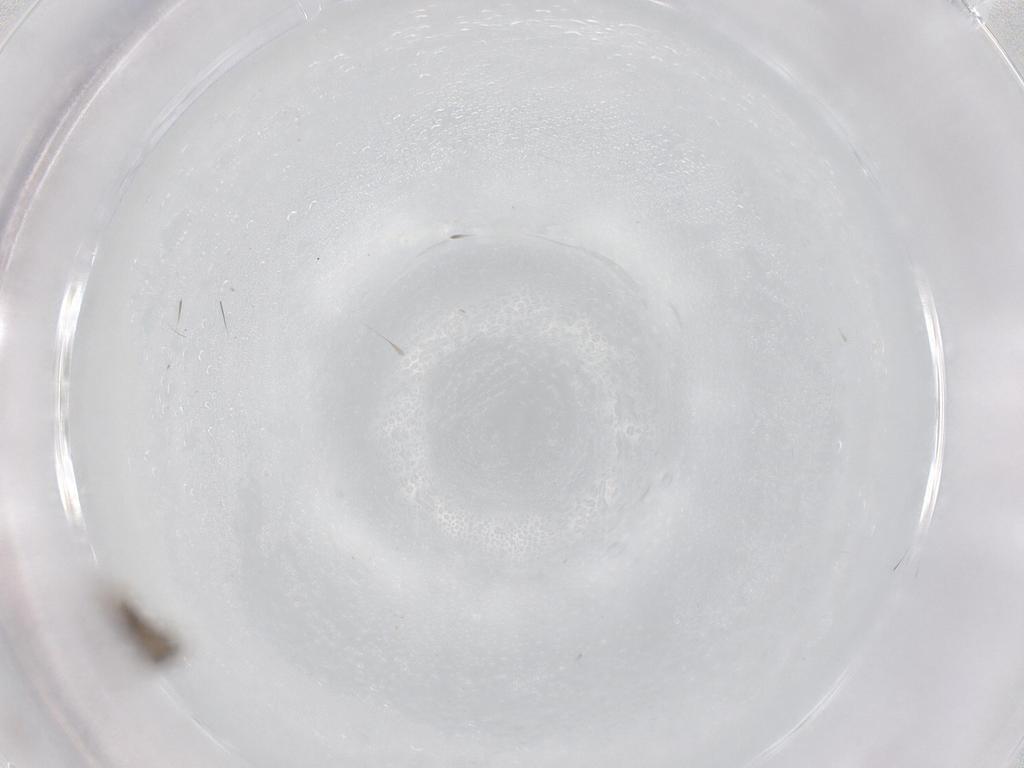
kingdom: Animalia
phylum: Arthropoda
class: Insecta
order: Diptera
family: Psychodidae
